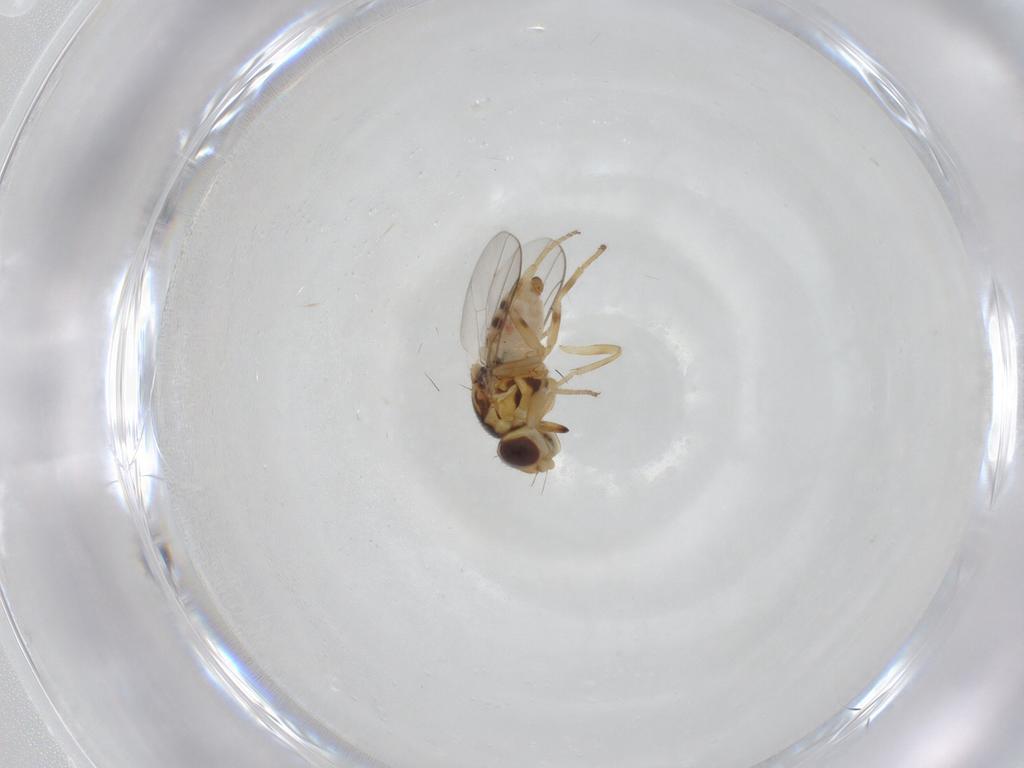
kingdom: Animalia
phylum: Arthropoda
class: Insecta
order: Diptera
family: Chloropidae
